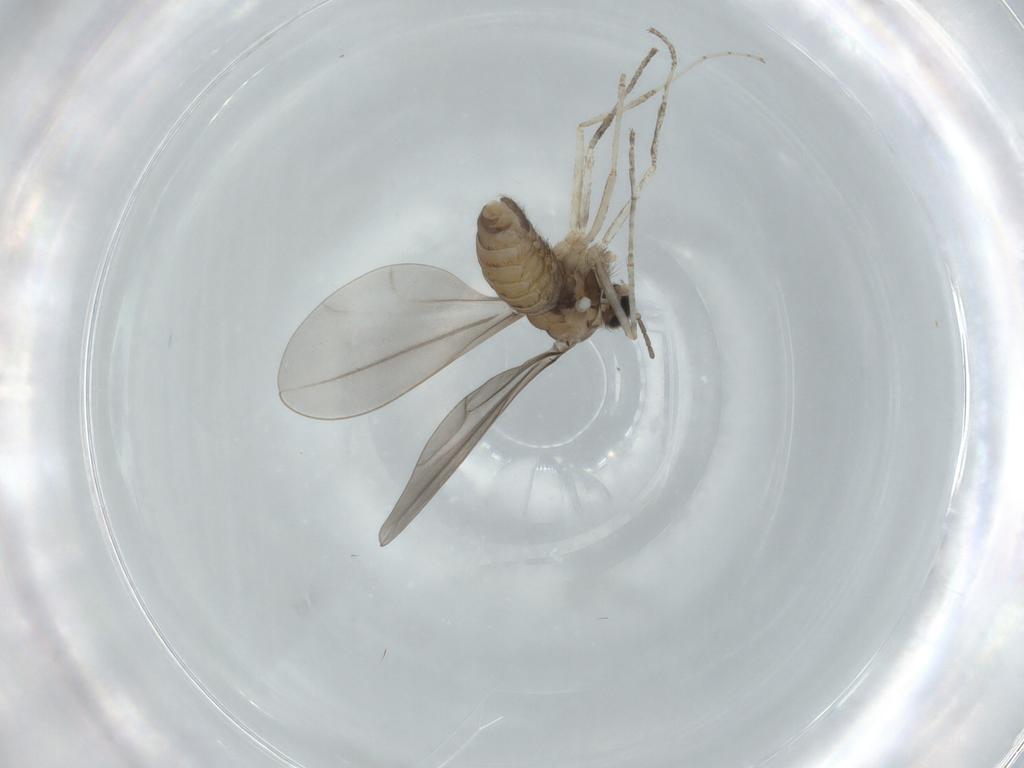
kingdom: Animalia
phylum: Arthropoda
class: Insecta
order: Diptera
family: Cecidomyiidae
